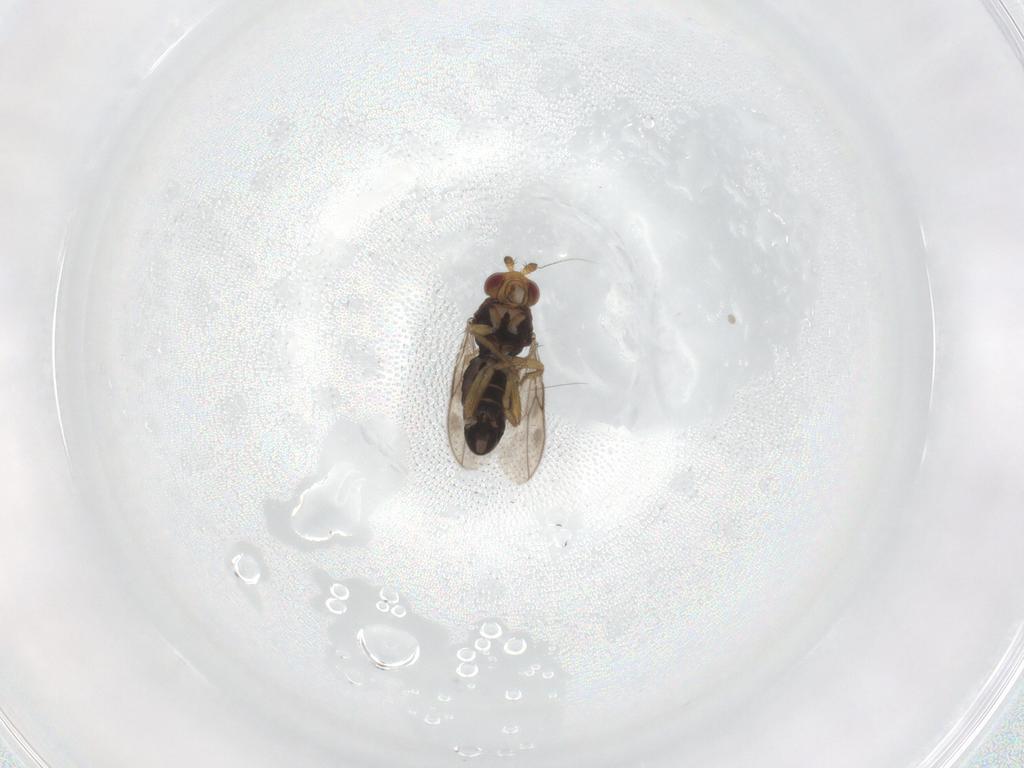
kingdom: Animalia
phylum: Arthropoda
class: Insecta
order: Diptera
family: Sphaeroceridae
